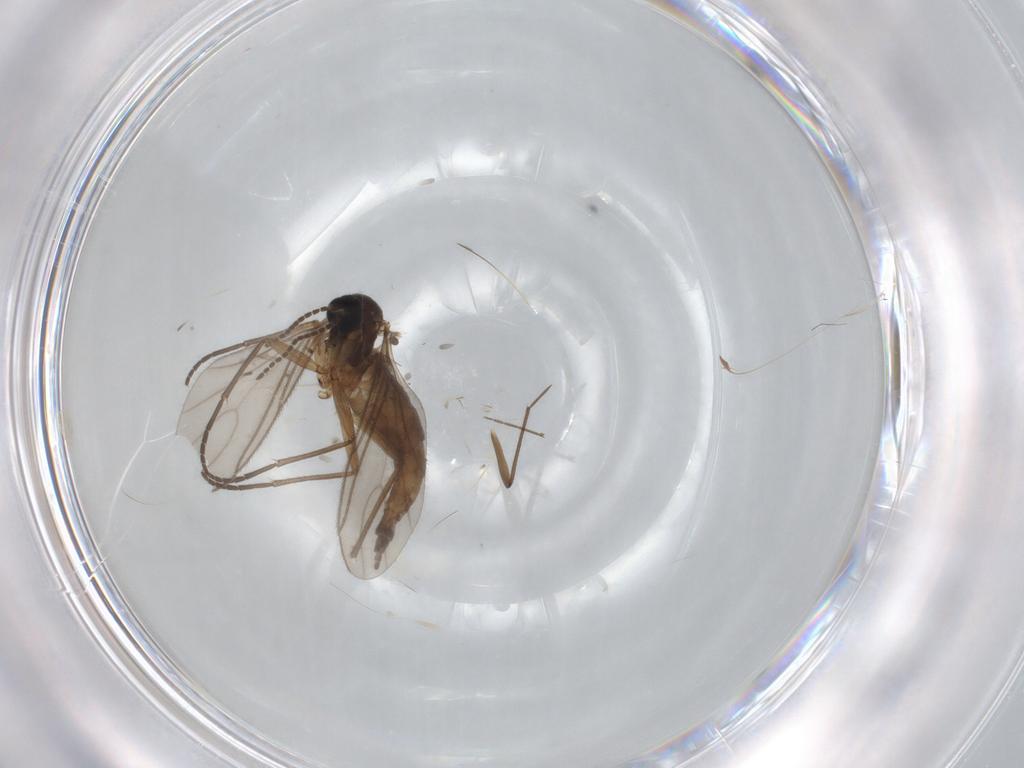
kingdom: Animalia
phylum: Arthropoda
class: Insecta
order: Diptera
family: Sciaridae
